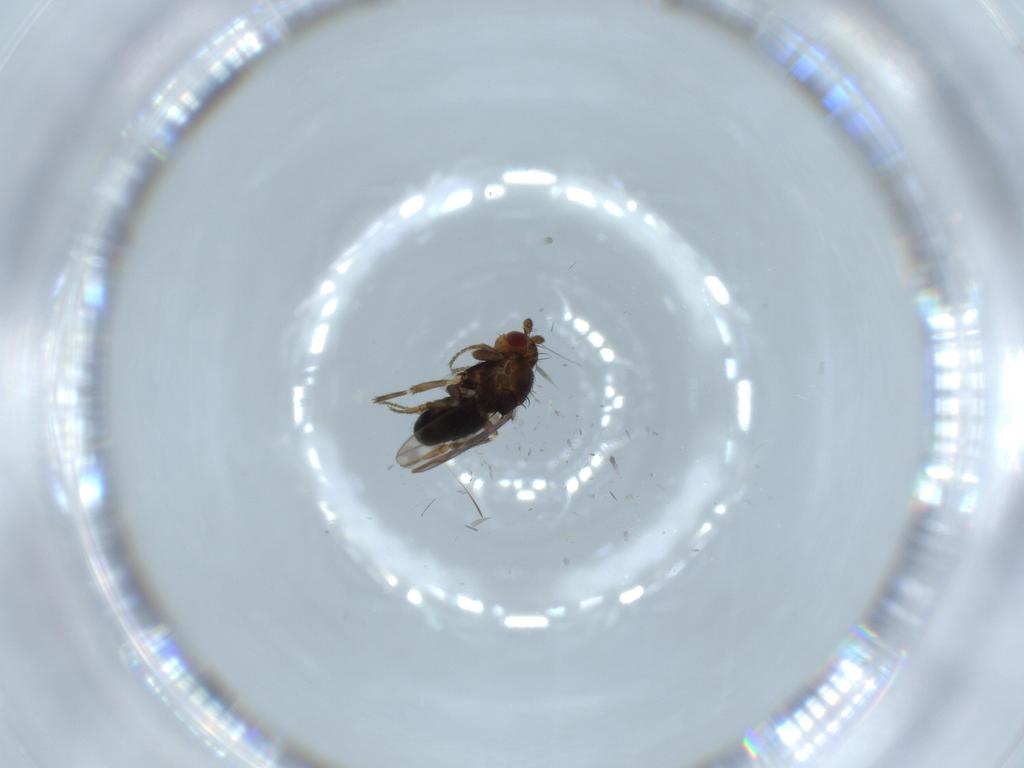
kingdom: Animalia
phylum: Arthropoda
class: Insecta
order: Diptera
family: Sphaeroceridae
